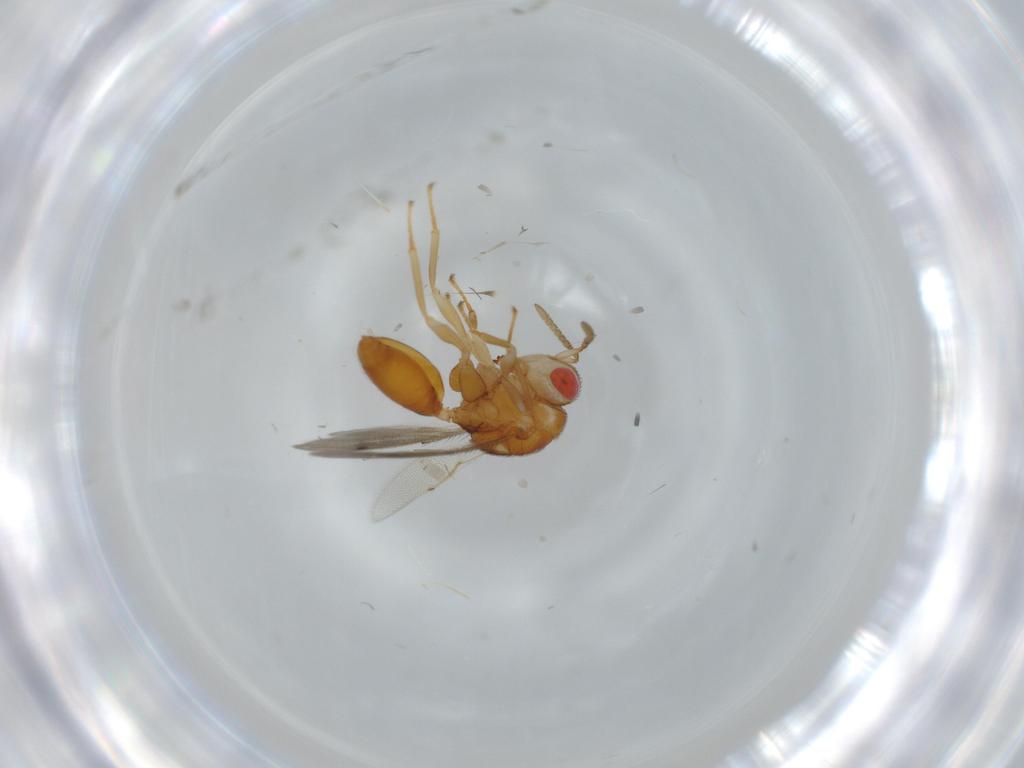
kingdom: Animalia
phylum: Arthropoda
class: Insecta
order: Hymenoptera
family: Eurytomidae
